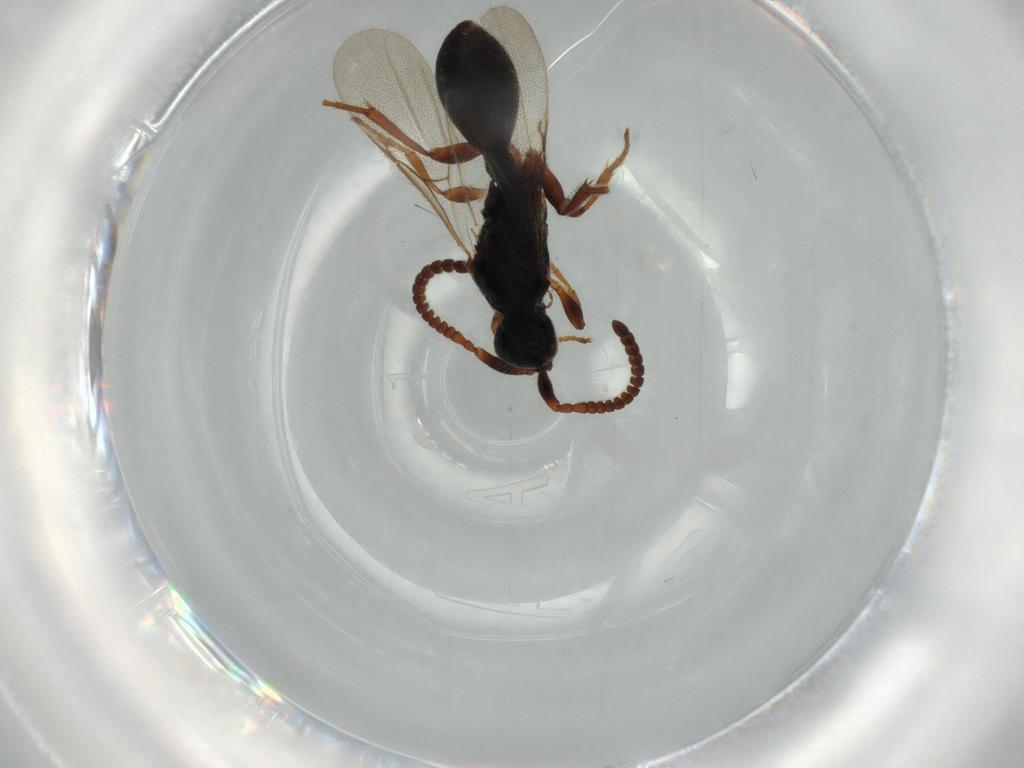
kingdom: Animalia
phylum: Arthropoda
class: Insecta
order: Hymenoptera
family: Diapriidae
